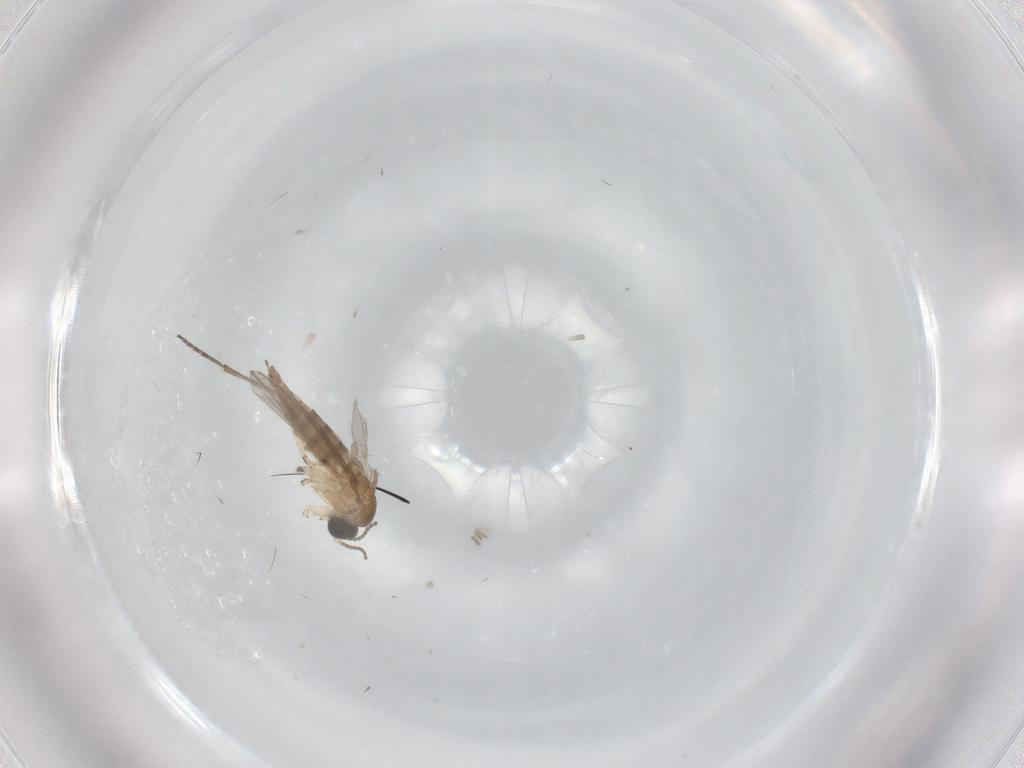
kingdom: Animalia
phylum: Arthropoda
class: Insecta
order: Diptera
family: Sciaridae
